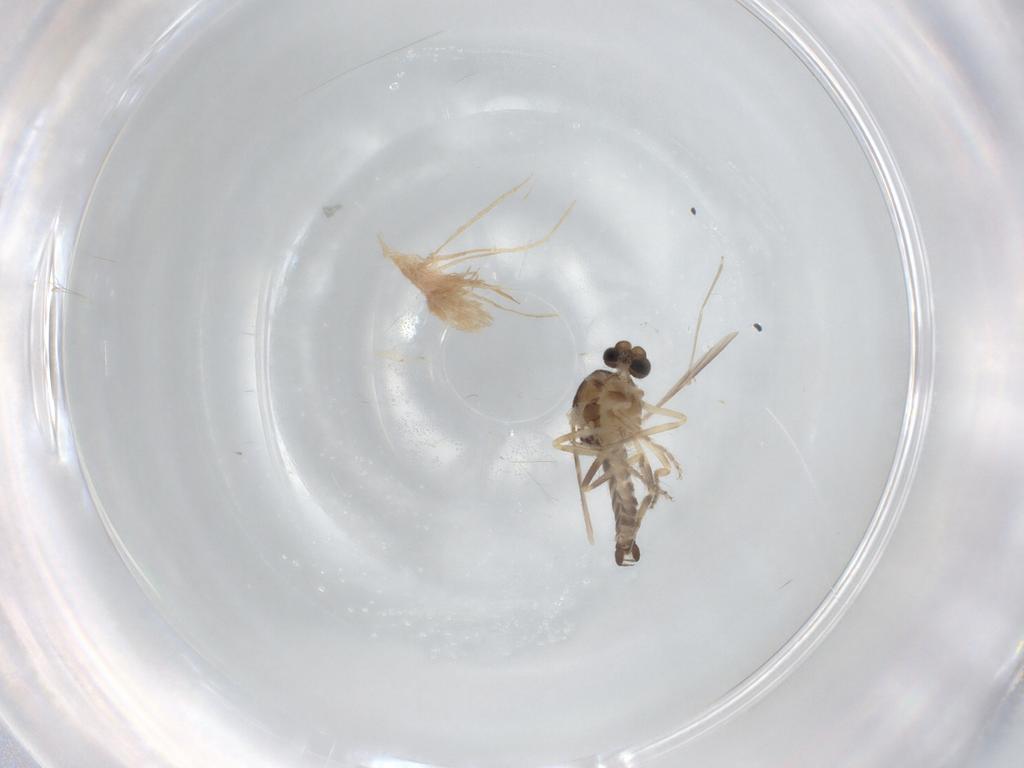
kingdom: Animalia
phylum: Arthropoda
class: Insecta
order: Diptera
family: Ceratopogonidae
